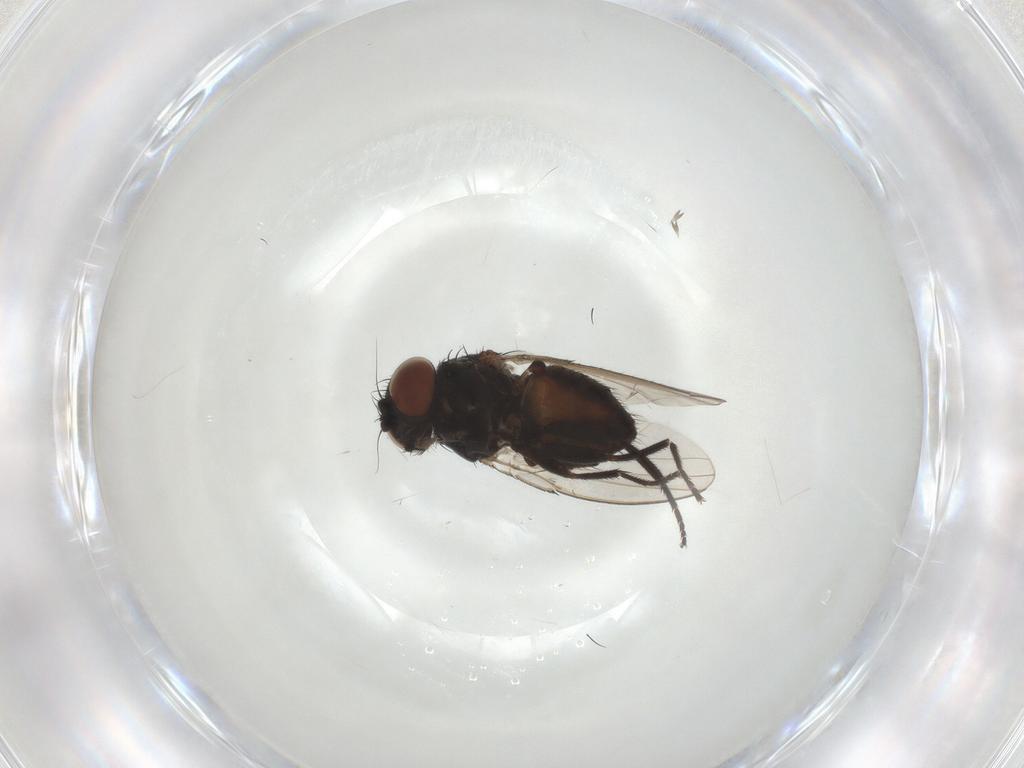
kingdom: Animalia
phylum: Arthropoda
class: Insecta
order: Diptera
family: Milichiidae
